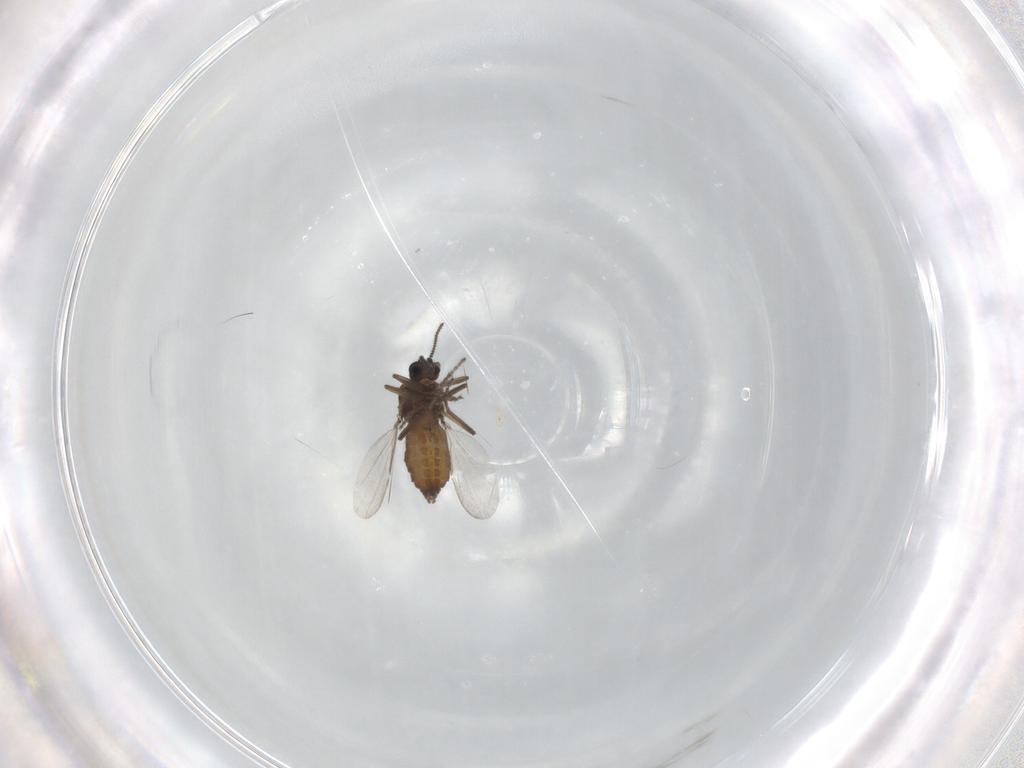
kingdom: Animalia
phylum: Arthropoda
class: Insecta
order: Diptera
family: Ceratopogonidae
